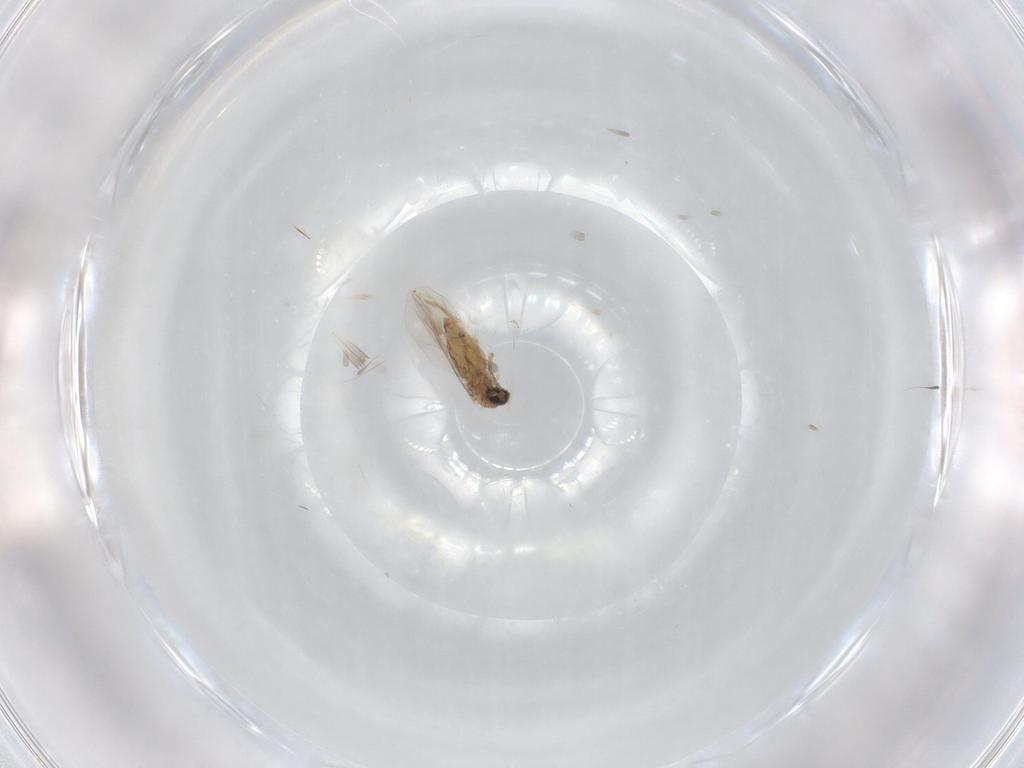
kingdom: Animalia
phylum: Arthropoda
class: Insecta
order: Diptera
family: Cecidomyiidae
